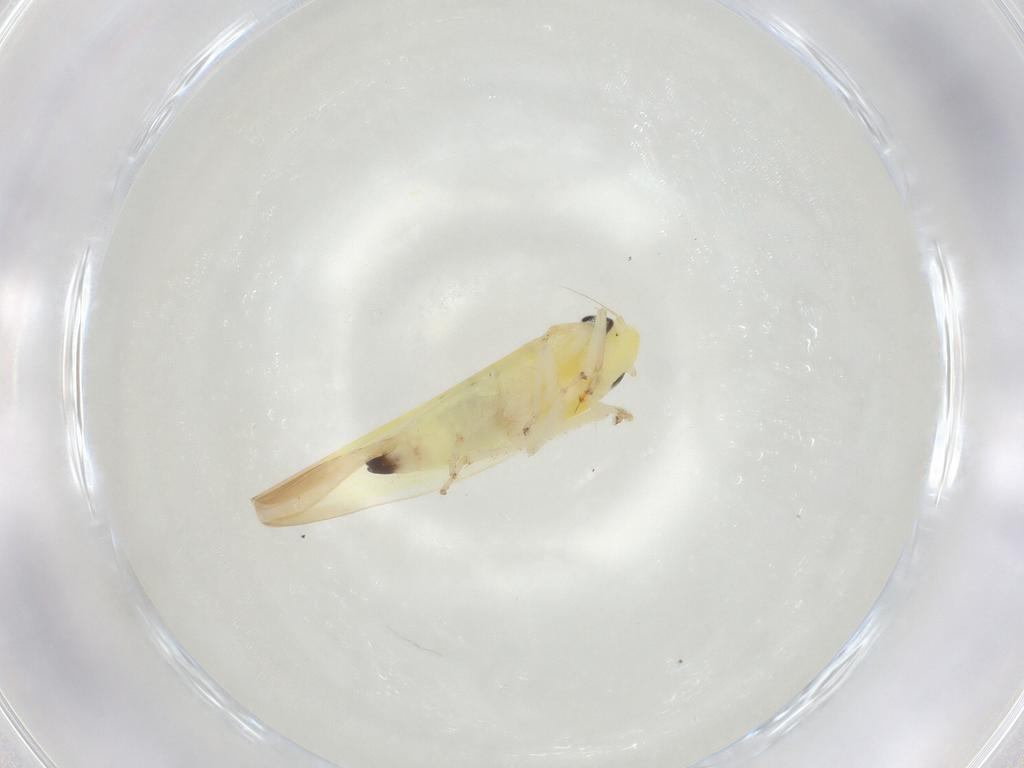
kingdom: Animalia
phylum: Arthropoda
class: Insecta
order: Hemiptera
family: Cicadellidae
